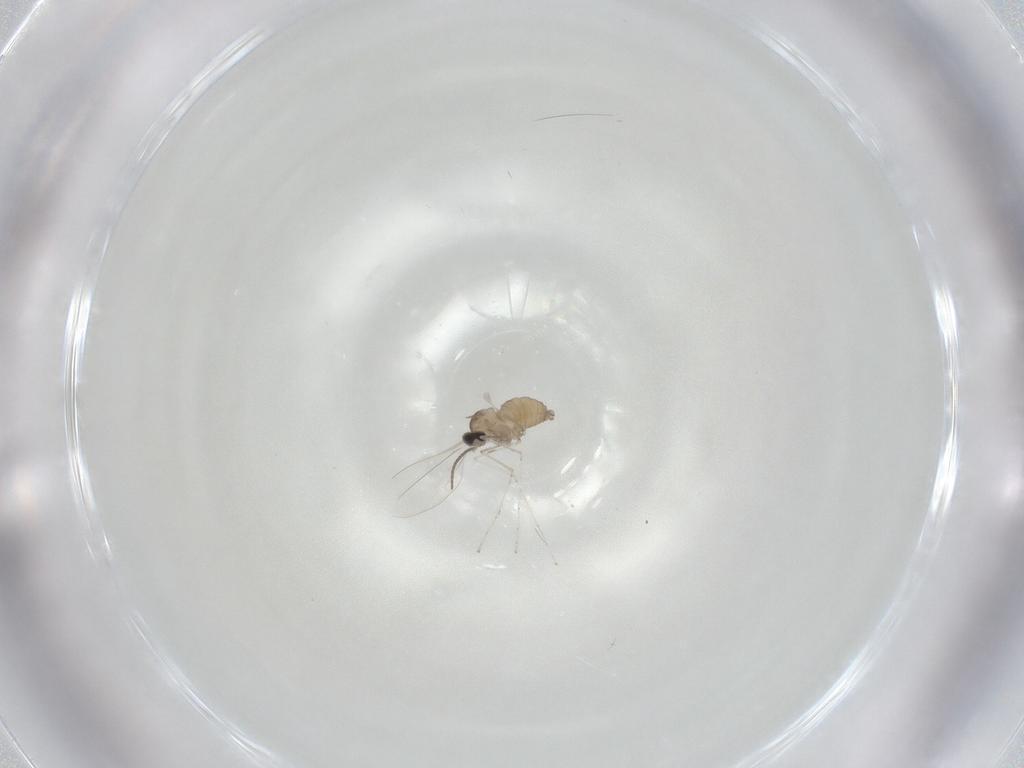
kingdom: Animalia
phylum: Arthropoda
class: Insecta
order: Diptera
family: Cecidomyiidae
